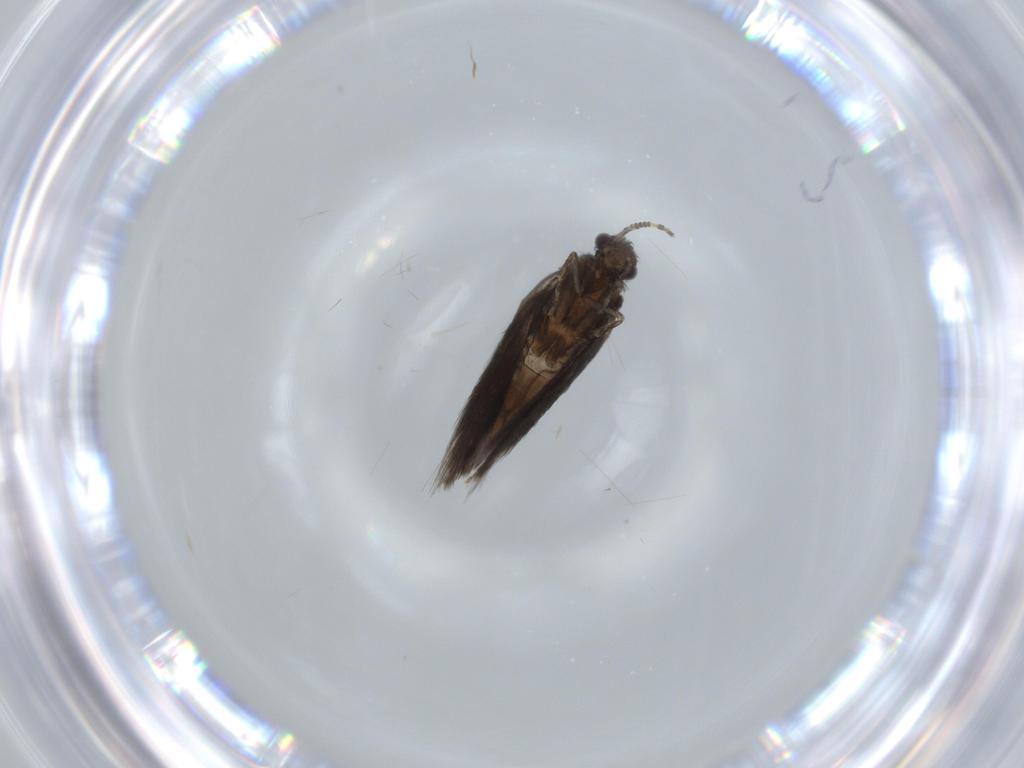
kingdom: Animalia
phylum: Arthropoda
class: Insecta
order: Trichoptera
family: Hydroptilidae
